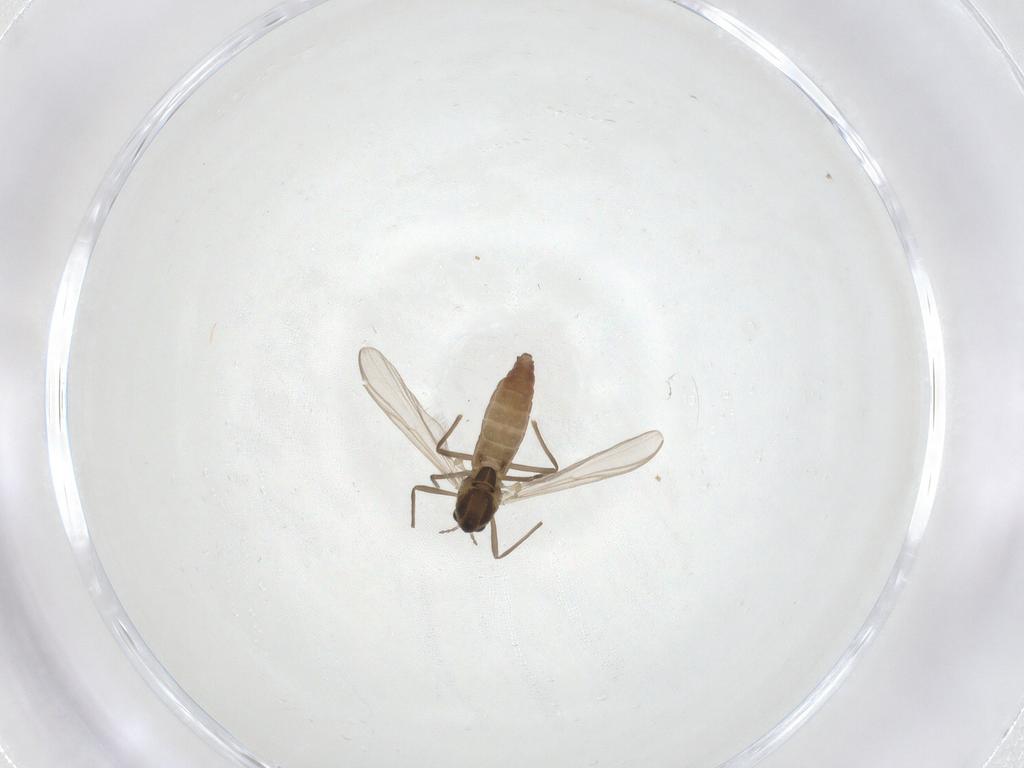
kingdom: Animalia
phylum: Arthropoda
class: Insecta
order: Diptera
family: Chironomidae
